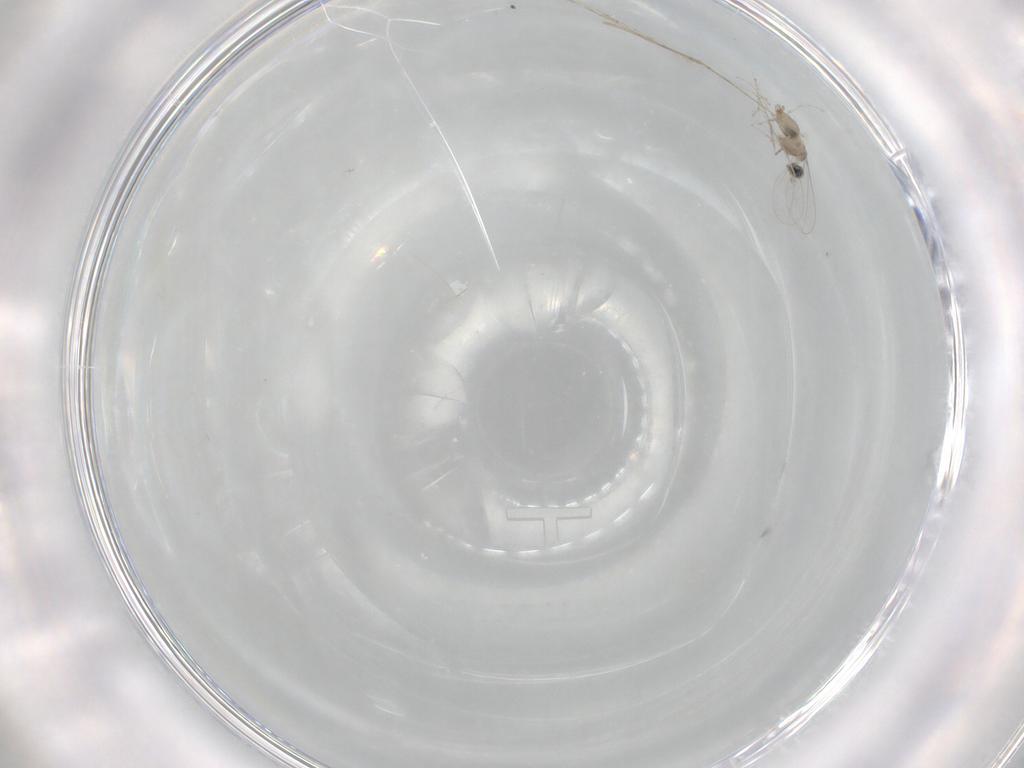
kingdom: Animalia
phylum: Arthropoda
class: Insecta
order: Diptera
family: Cecidomyiidae
